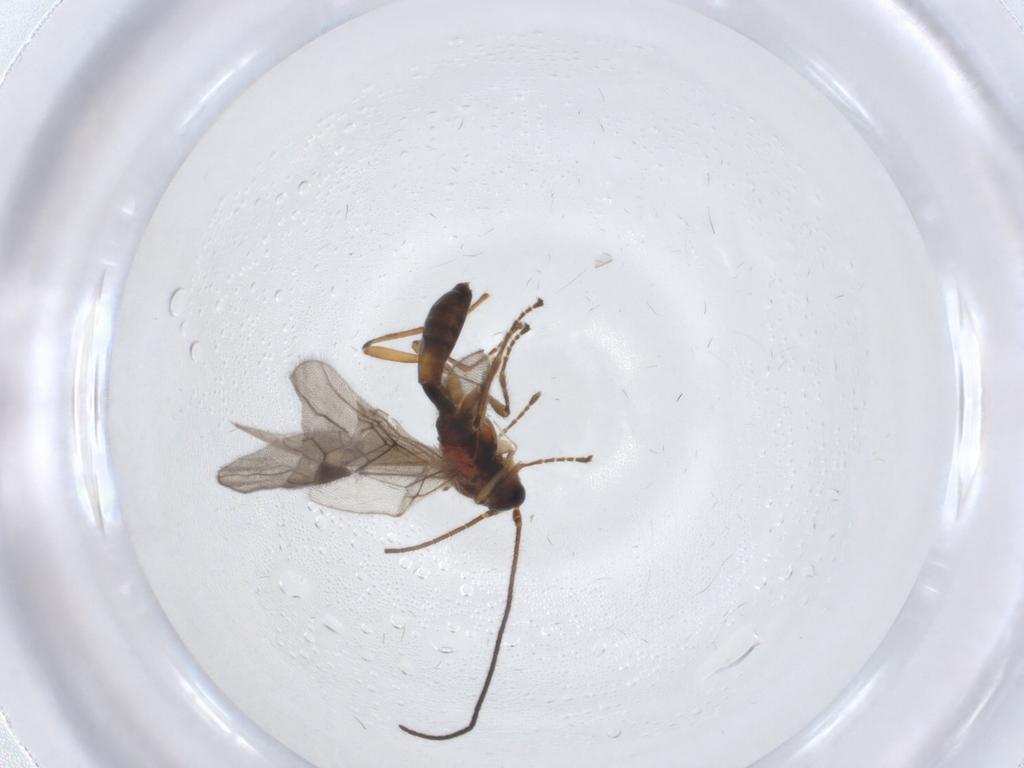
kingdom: Animalia
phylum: Arthropoda
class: Insecta
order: Hymenoptera
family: Braconidae
